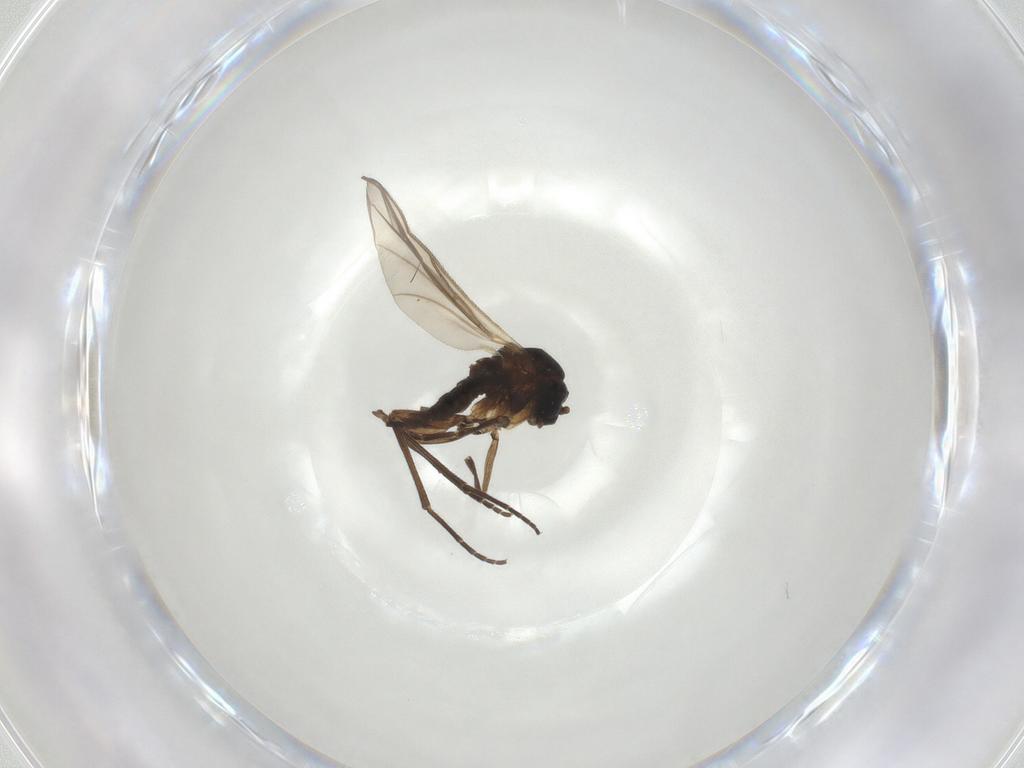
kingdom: Animalia
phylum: Arthropoda
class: Insecta
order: Diptera
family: Sciaridae
